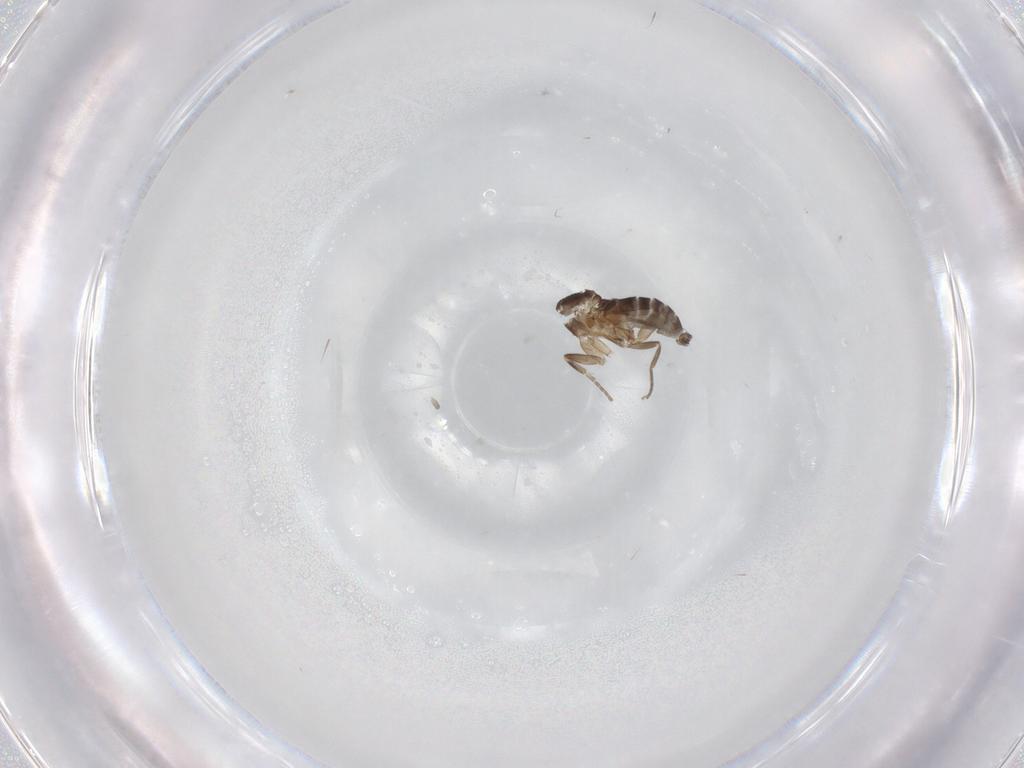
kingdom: Animalia
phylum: Arthropoda
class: Insecta
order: Diptera
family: Ceratopogonidae
